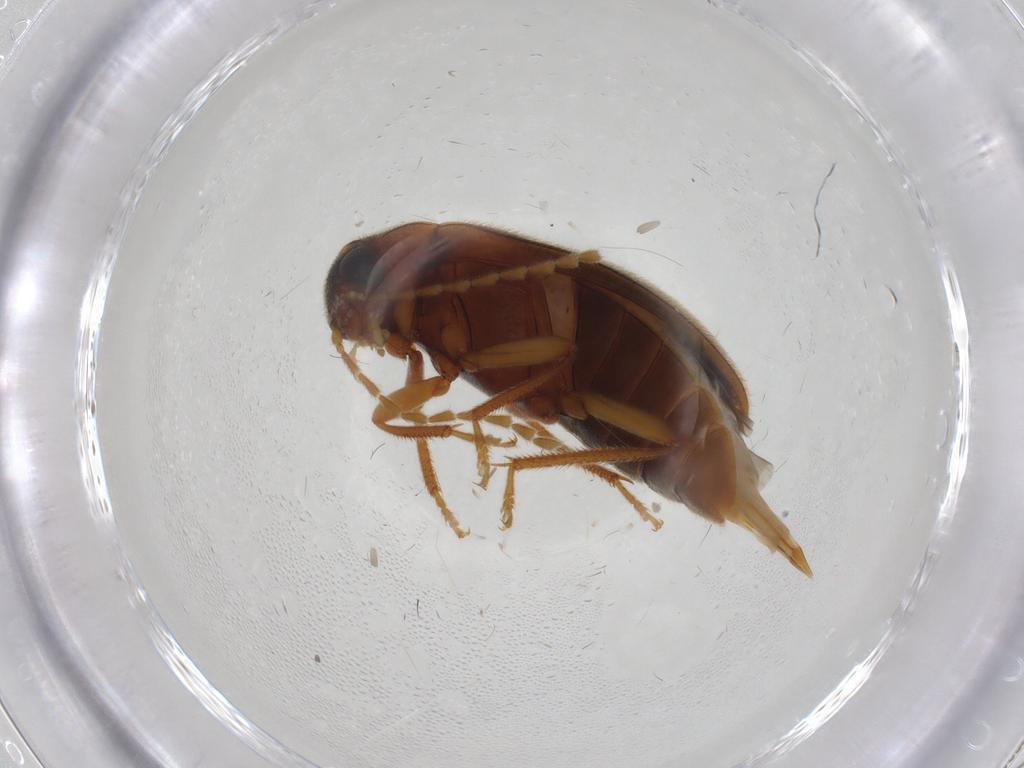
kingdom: Animalia
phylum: Arthropoda
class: Insecta
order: Coleoptera
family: Ptilodactylidae
